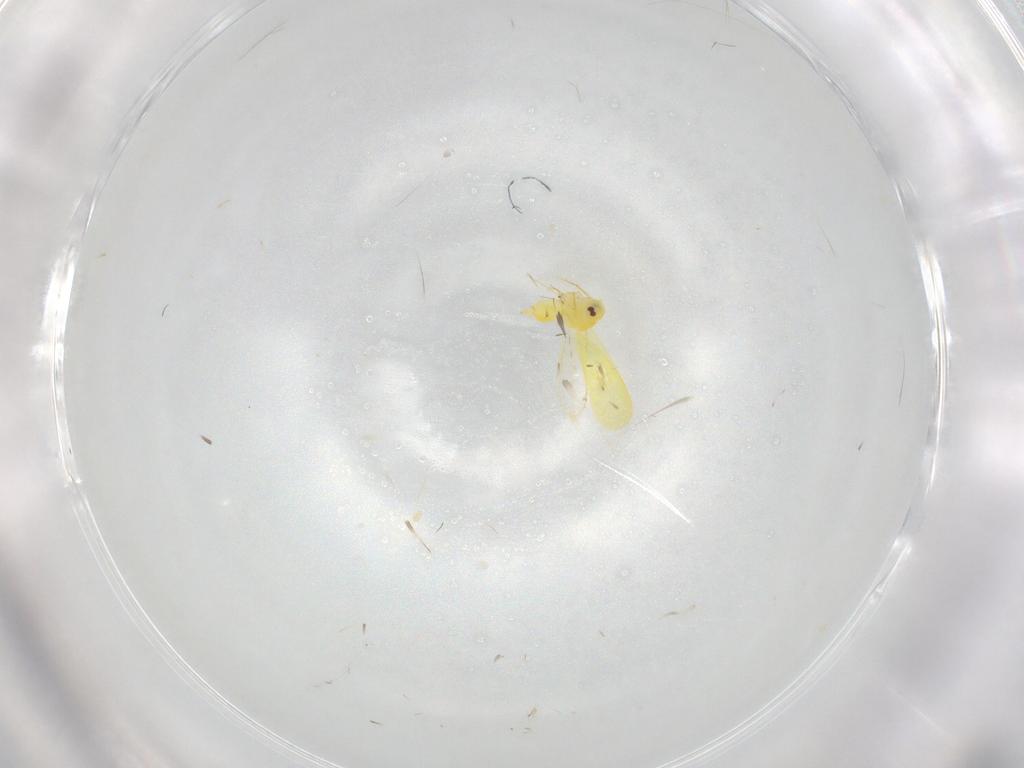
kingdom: Animalia
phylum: Arthropoda
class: Insecta
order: Hemiptera
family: Aleyrodidae
